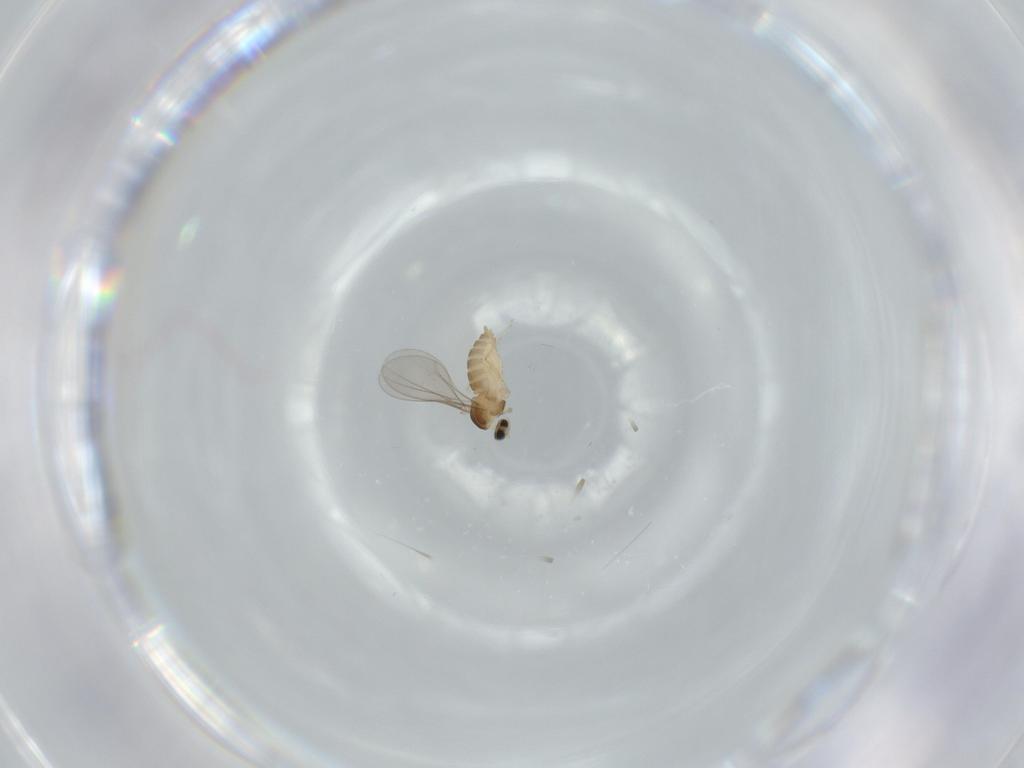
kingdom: Animalia
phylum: Arthropoda
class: Insecta
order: Diptera
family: Cecidomyiidae
